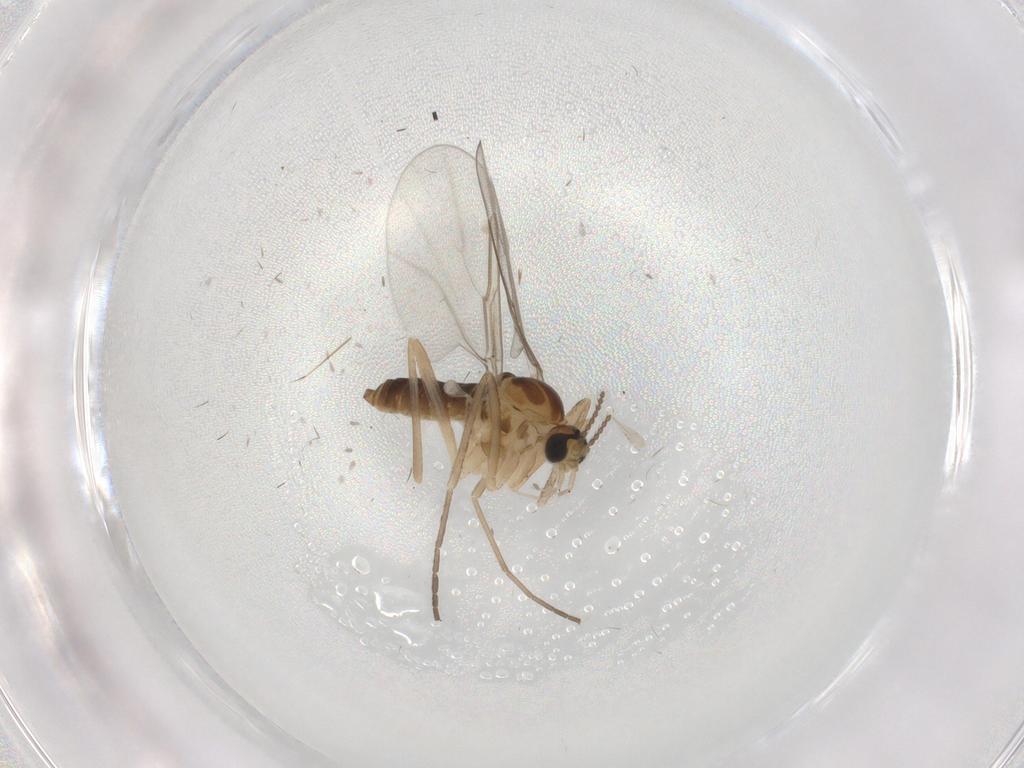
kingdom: Animalia
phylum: Arthropoda
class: Insecta
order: Diptera
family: Cecidomyiidae
